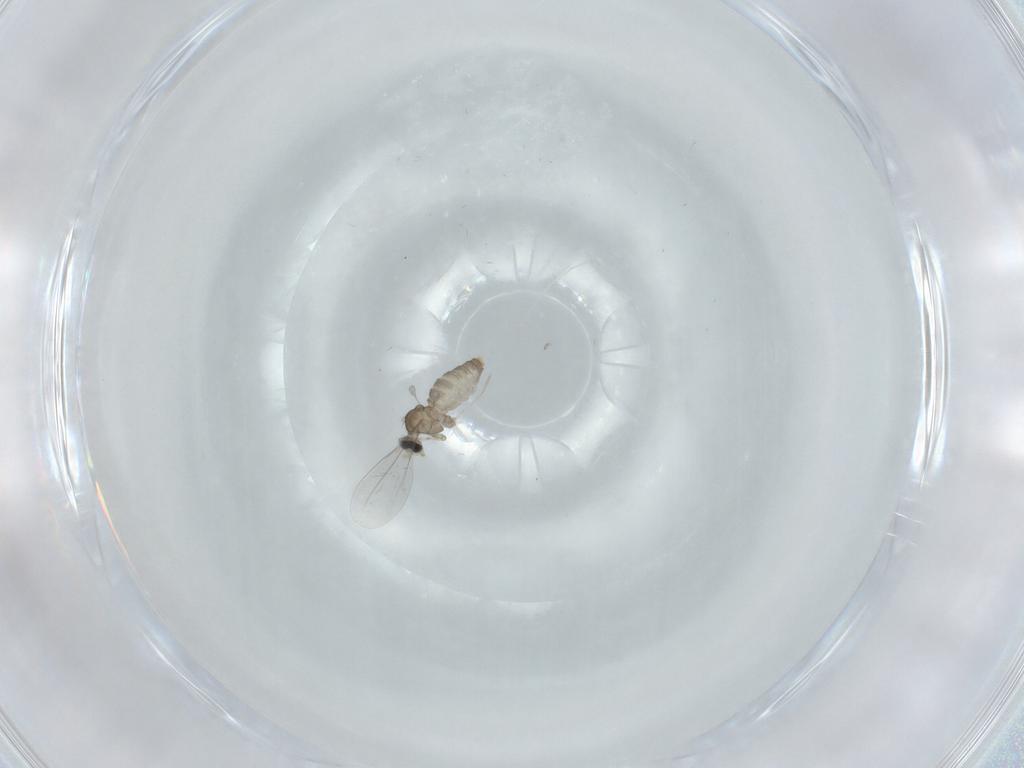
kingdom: Animalia
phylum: Arthropoda
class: Insecta
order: Diptera
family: Cecidomyiidae
